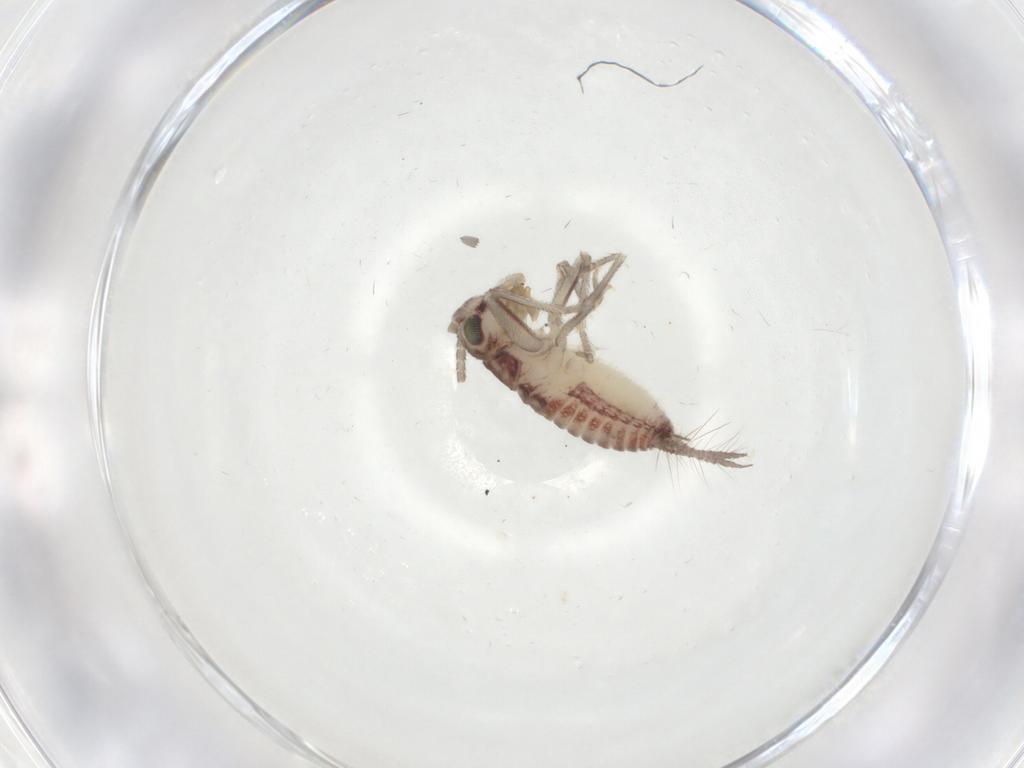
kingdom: Animalia
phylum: Arthropoda
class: Insecta
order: Orthoptera
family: Trigonidiidae
